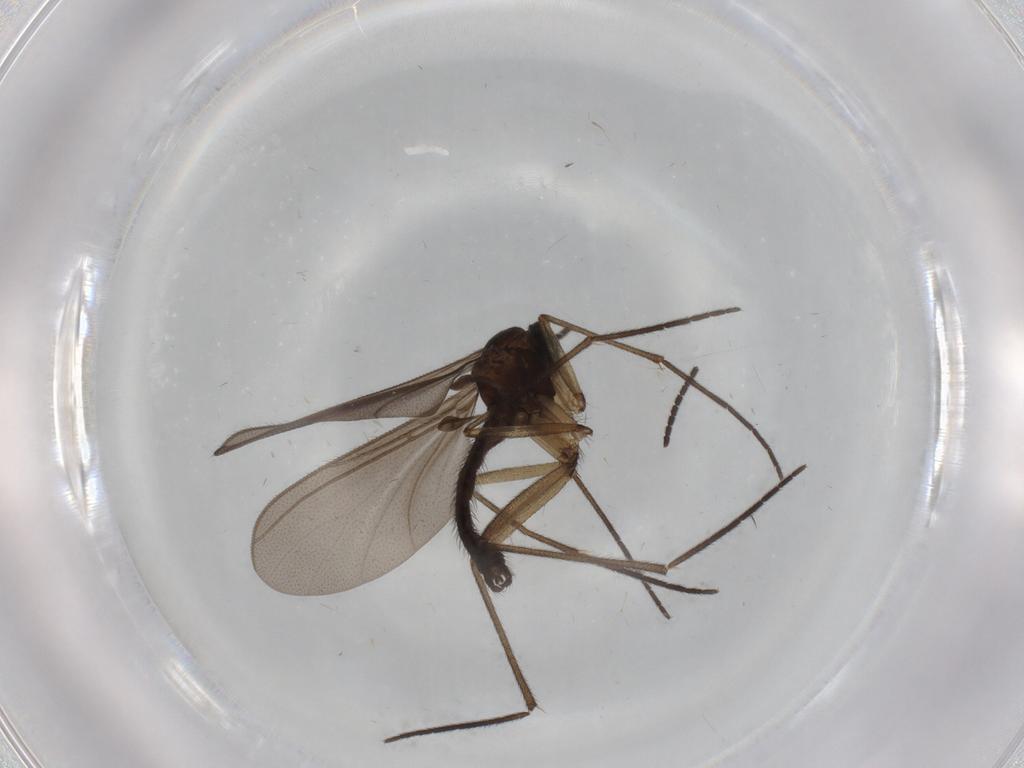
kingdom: Animalia
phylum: Arthropoda
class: Insecta
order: Diptera
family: Sciaridae
